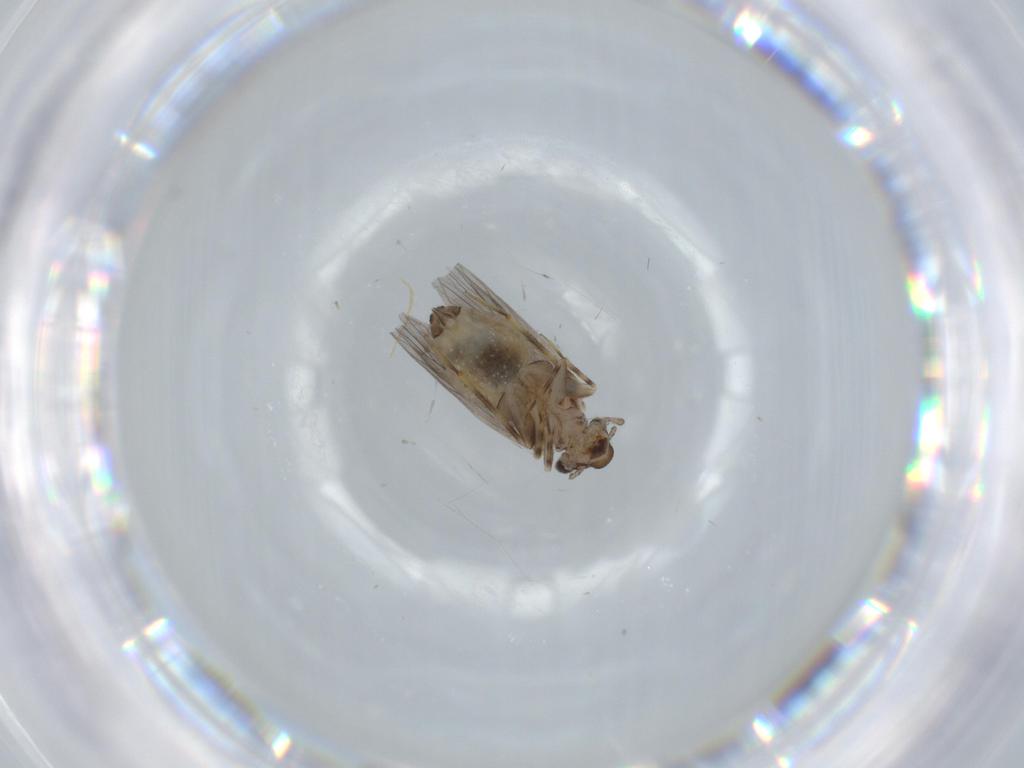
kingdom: Animalia
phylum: Arthropoda
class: Insecta
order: Psocodea
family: Lepidopsocidae
